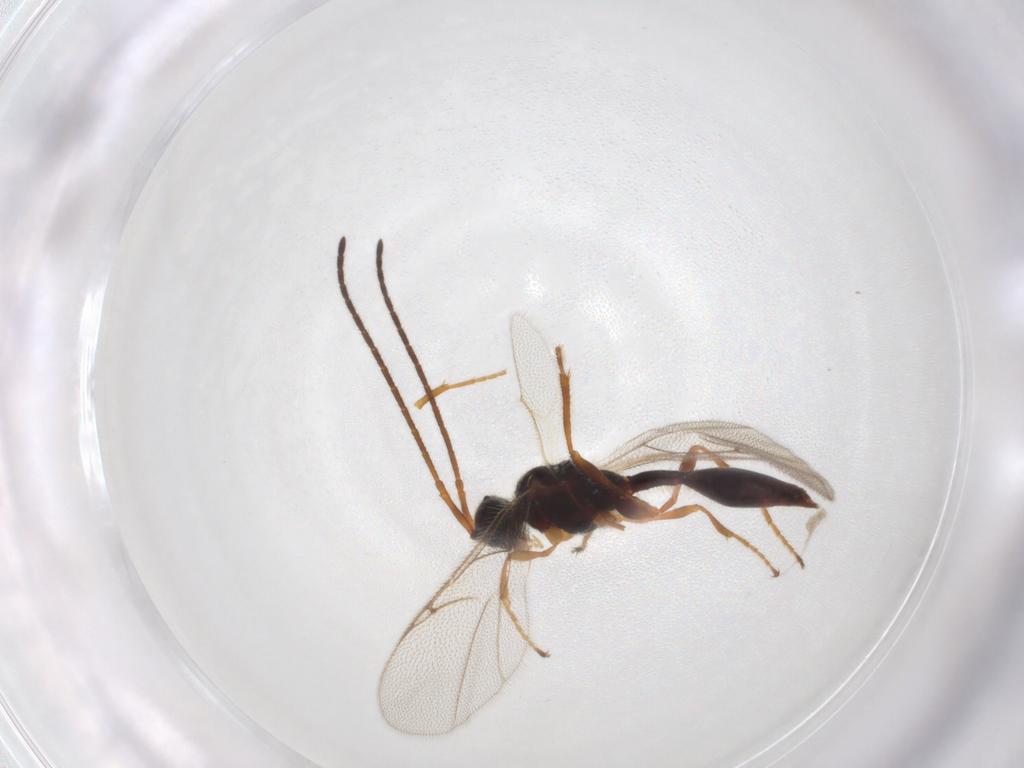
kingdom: Animalia
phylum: Arthropoda
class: Insecta
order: Hymenoptera
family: Diapriidae
